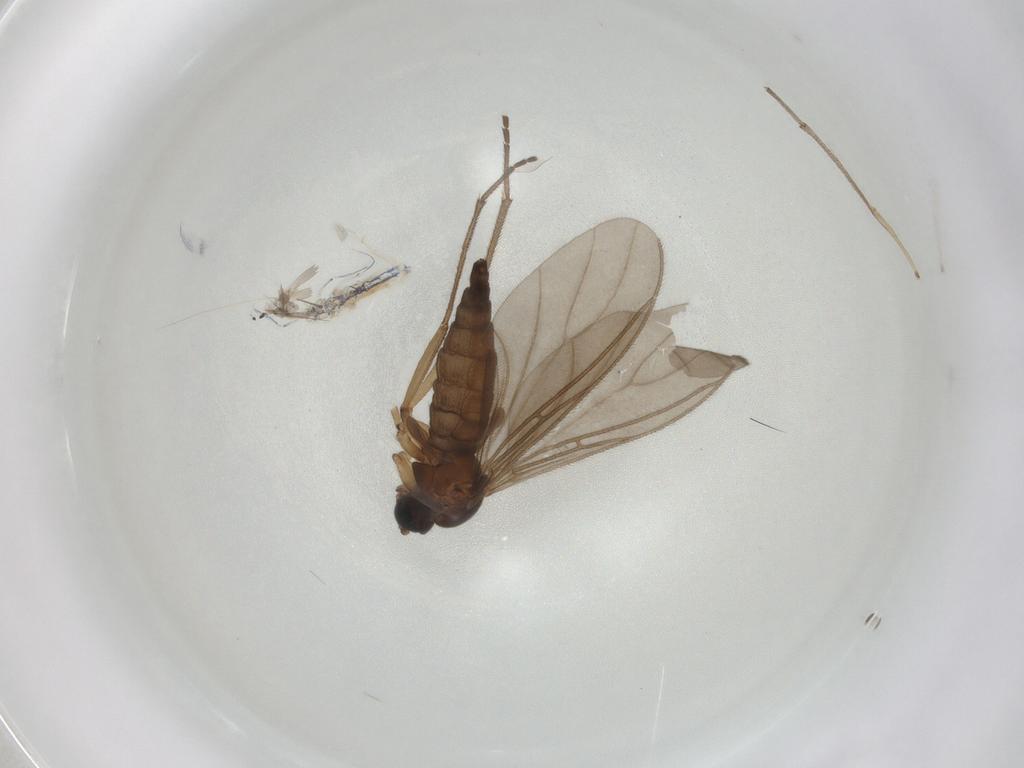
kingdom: Animalia
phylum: Arthropoda
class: Insecta
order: Diptera
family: Sciaridae
